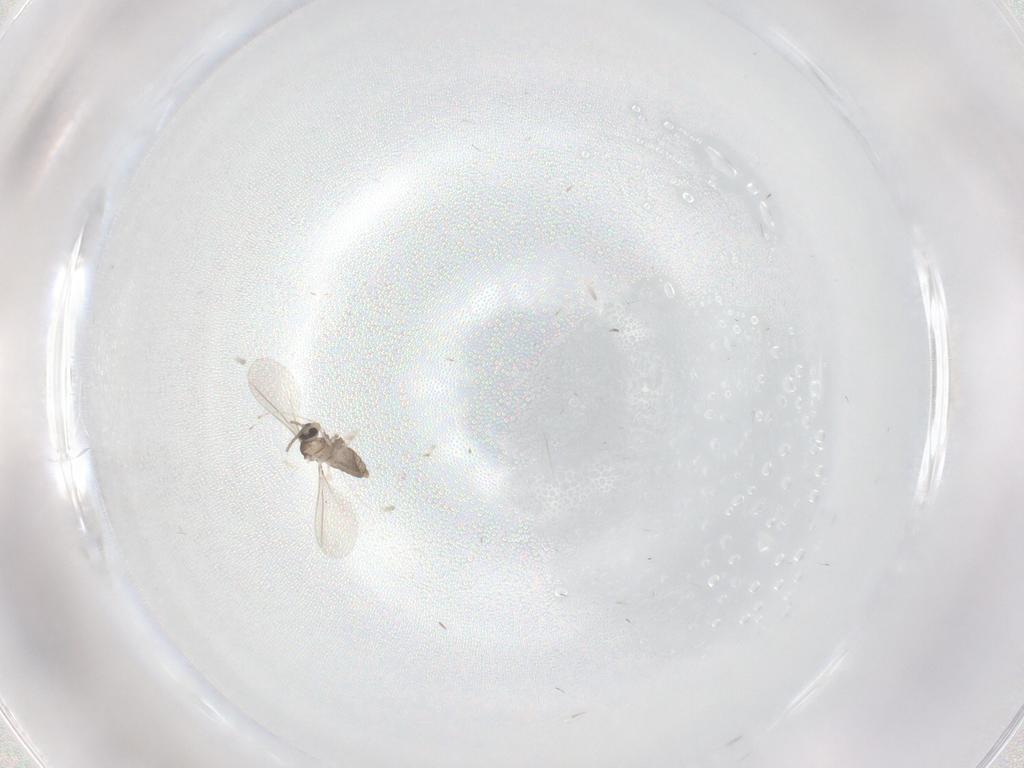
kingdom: Animalia
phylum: Arthropoda
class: Insecta
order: Diptera
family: Cecidomyiidae
